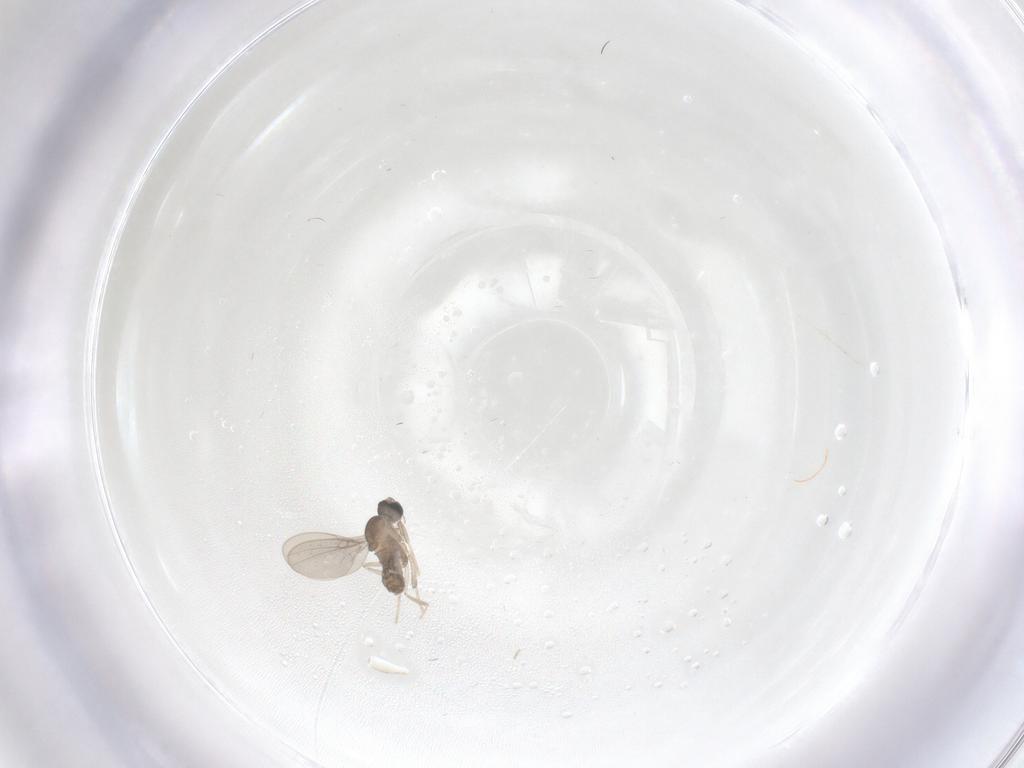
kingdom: Animalia
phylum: Arthropoda
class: Insecta
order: Diptera
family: Cecidomyiidae
